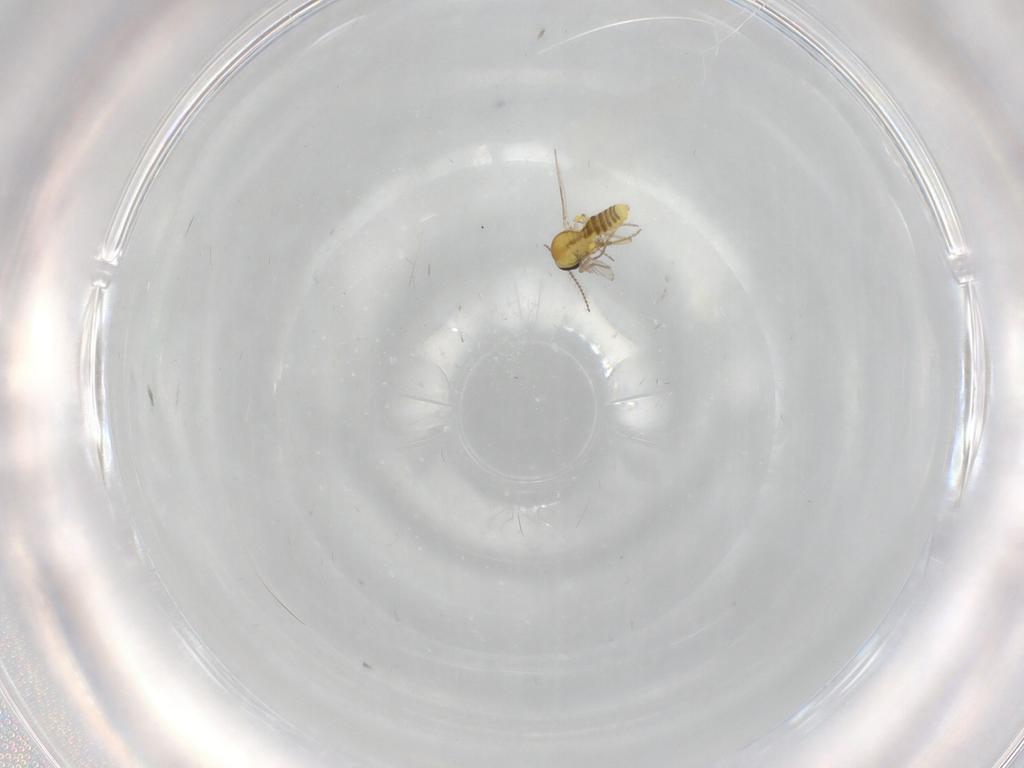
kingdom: Animalia
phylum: Arthropoda
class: Insecta
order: Diptera
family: Ceratopogonidae
